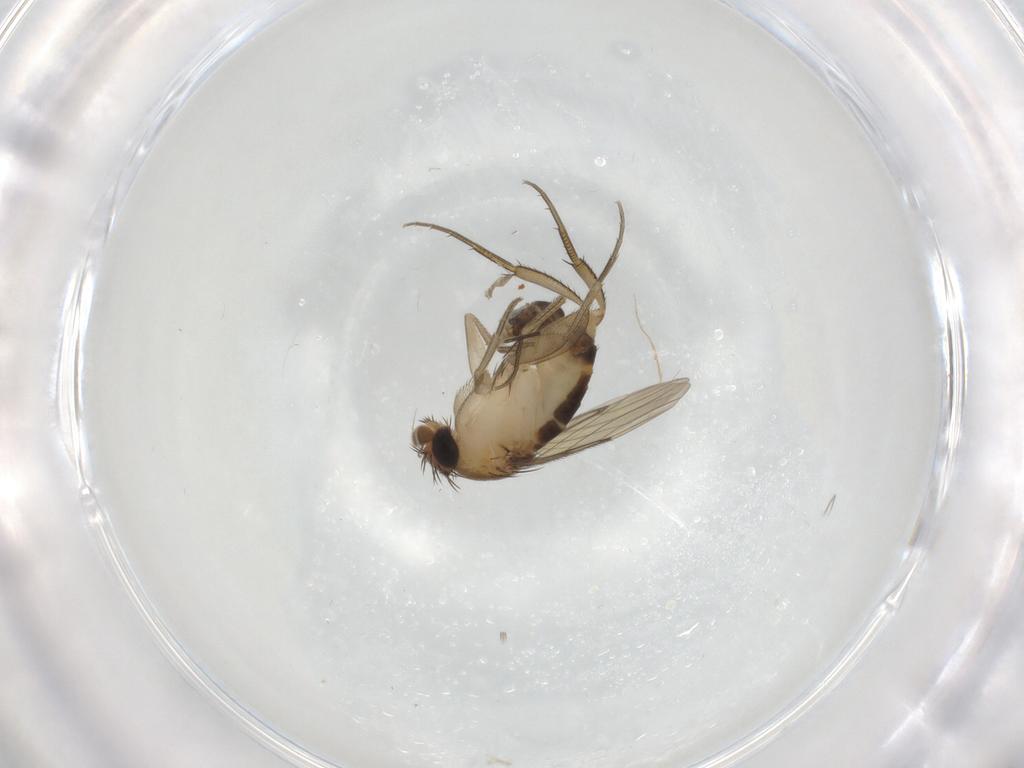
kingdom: Animalia
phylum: Arthropoda
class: Insecta
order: Diptera
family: Phoridae
